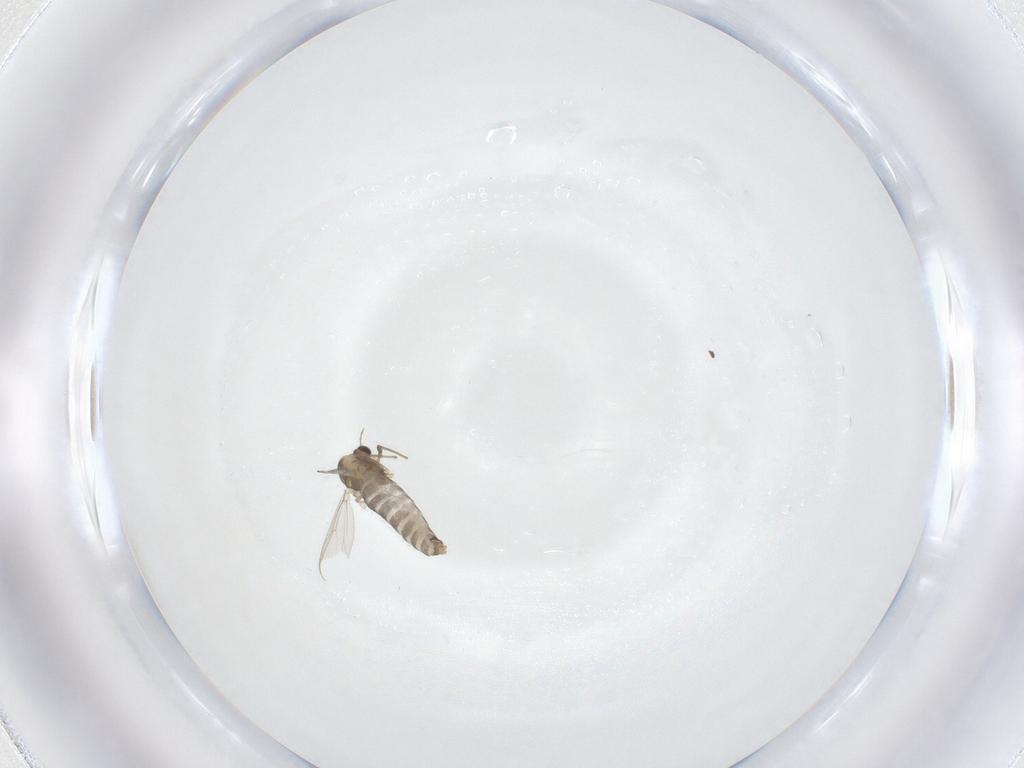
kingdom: Animalia
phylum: Arthropoda
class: Insecta
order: Diptera
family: Chironomidae
